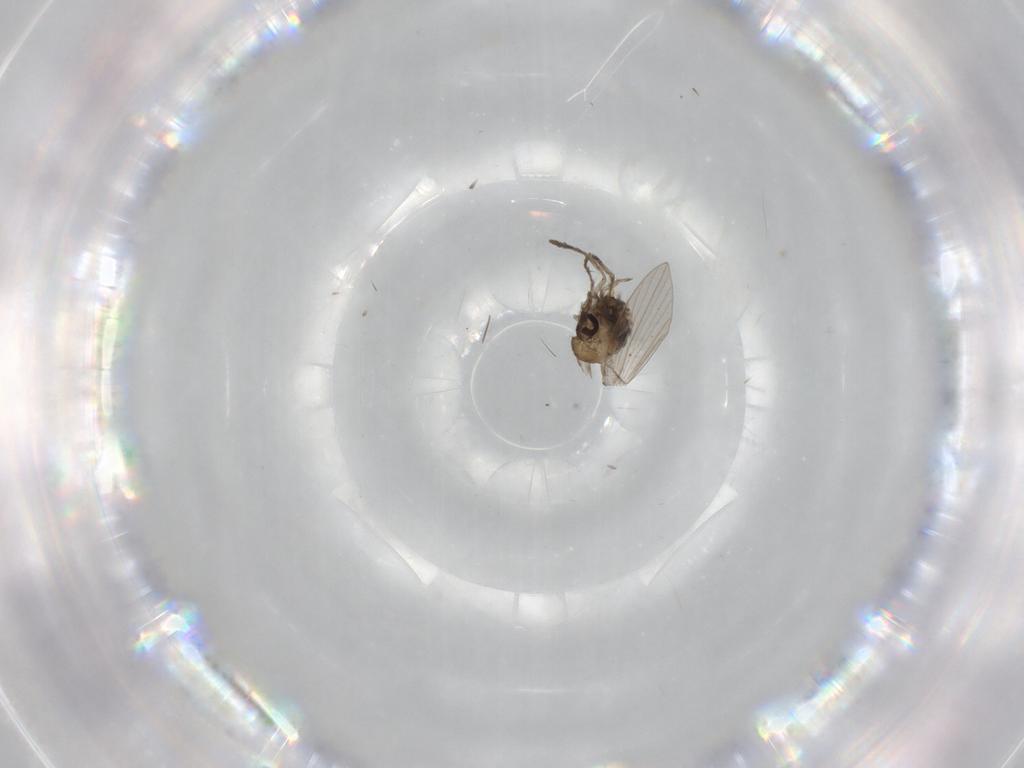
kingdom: Animalia
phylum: Arthropoda
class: Insecta
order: Diptera
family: Psychodidae
